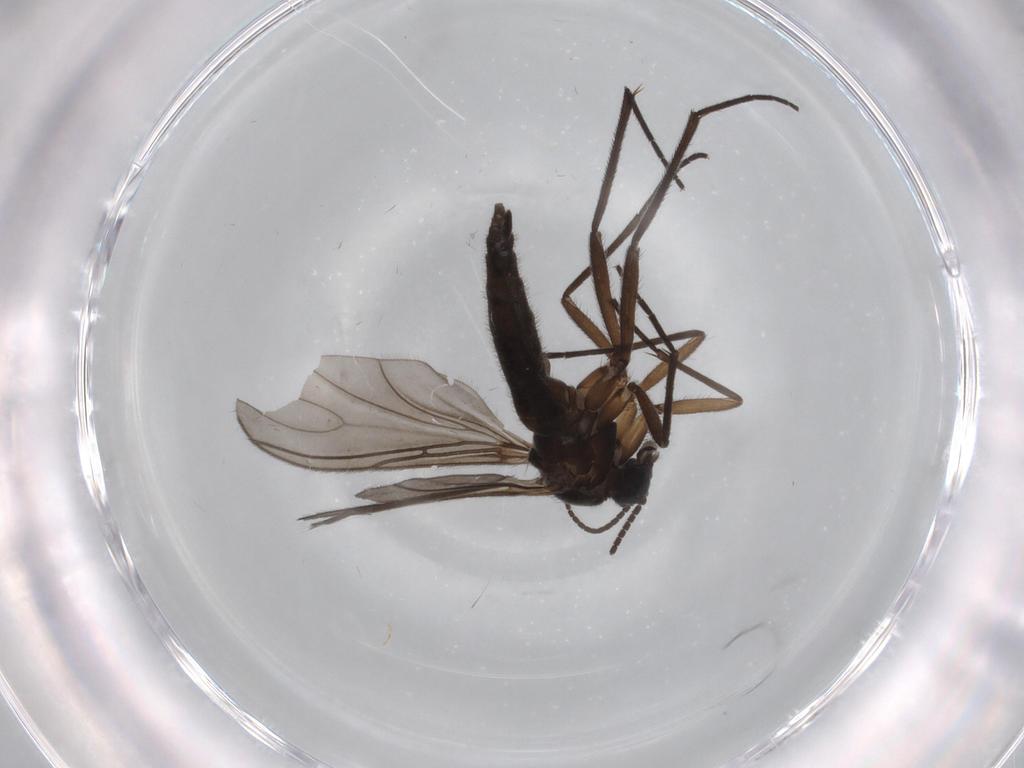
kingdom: Animalia
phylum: Arthropoda
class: Insecta
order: Diptera
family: Sciaridae
